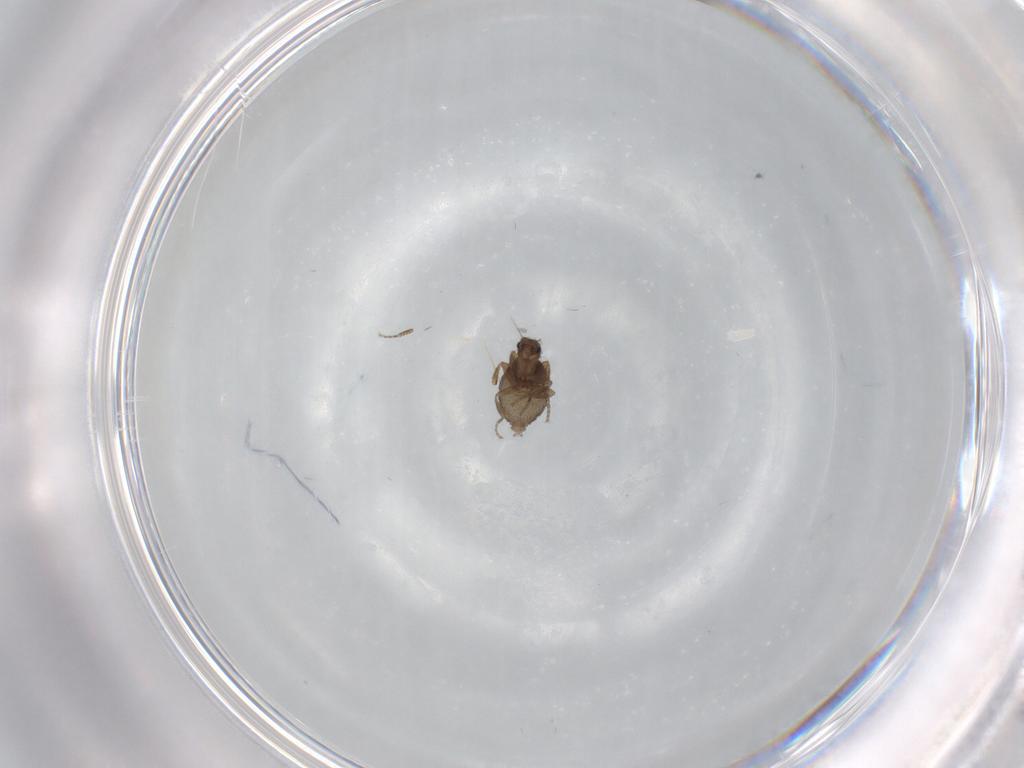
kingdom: Animalia
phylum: Arthropoda
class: Insecta
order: Diptera
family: Phoridae
